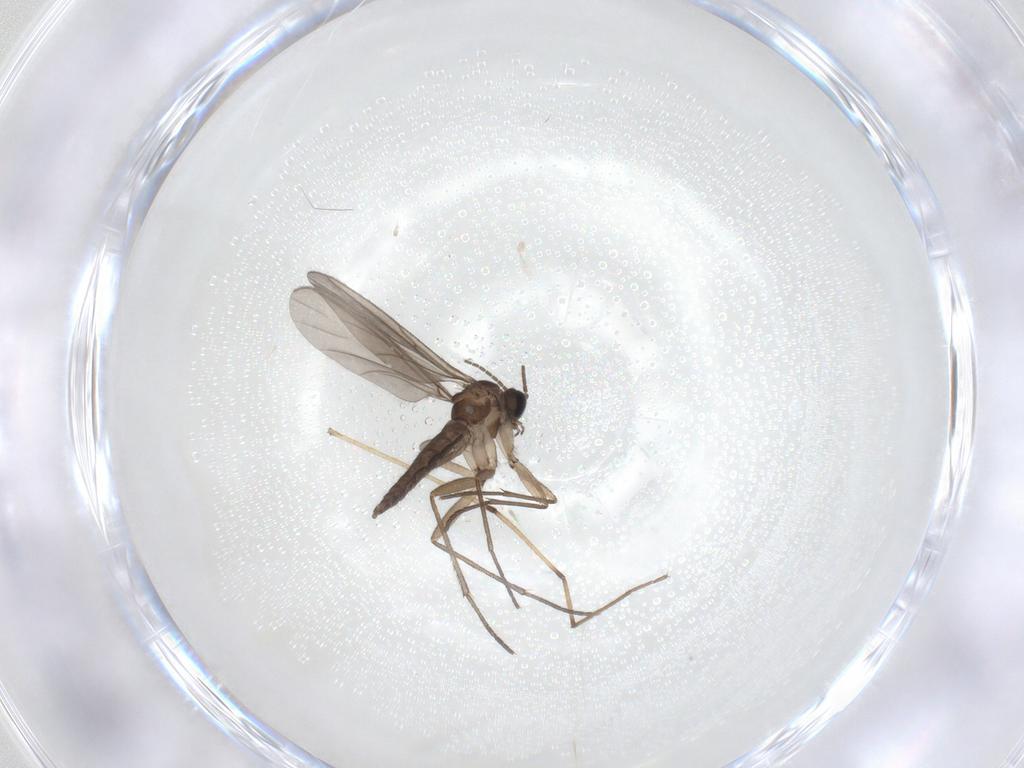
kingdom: Animalia
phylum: Arthropoda
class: Insecta
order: Diptera
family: Sciaridae
